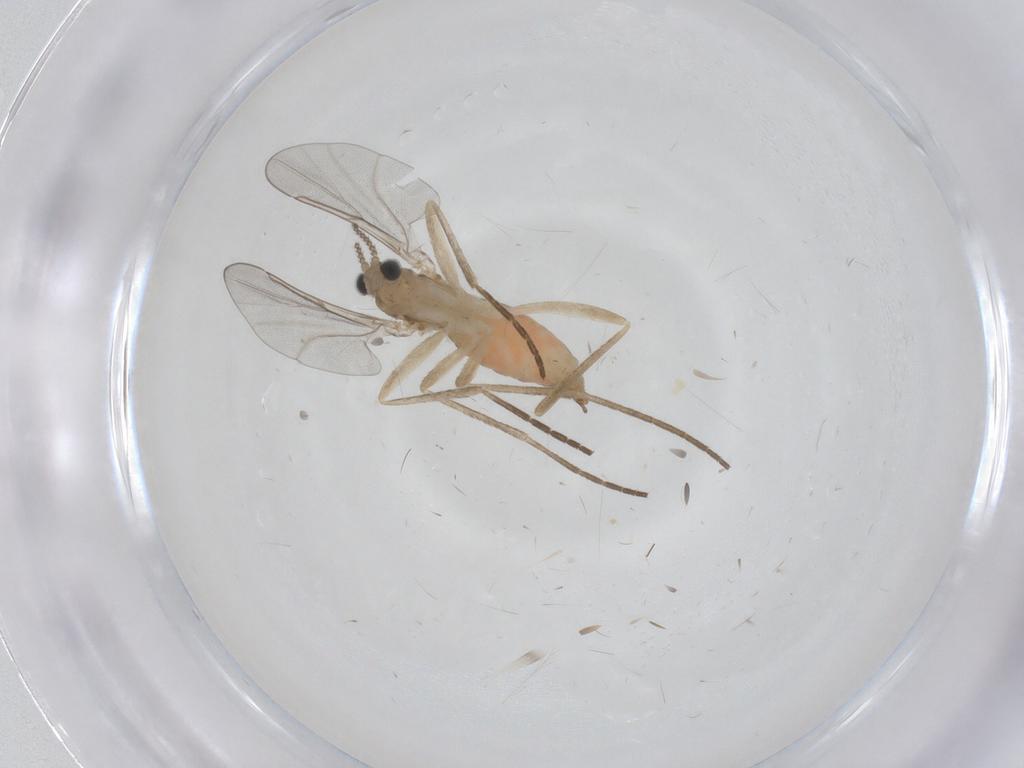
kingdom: Animalia
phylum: Arthropoda
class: Insecta
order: Diptera
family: Cecidomyiidae
